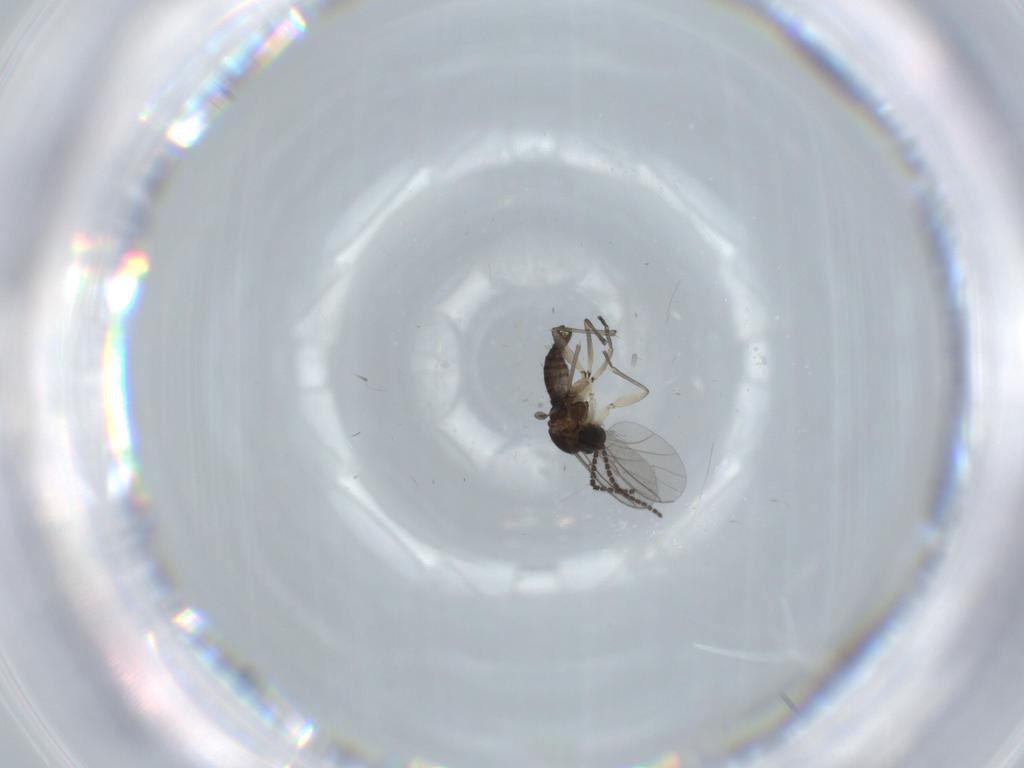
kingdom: Animalia
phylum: Arthropoda
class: Insecta
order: Diptera
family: Sciaridae
